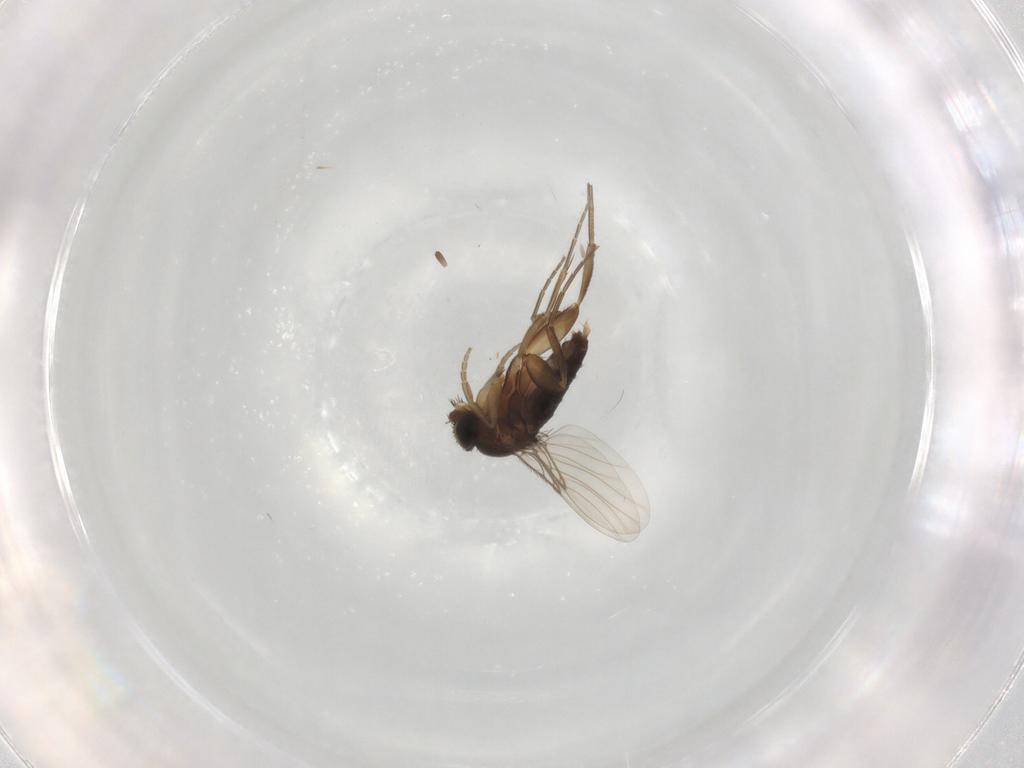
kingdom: Animalia
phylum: Arthropoda
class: Insecta
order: Diptera
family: Phoridae
